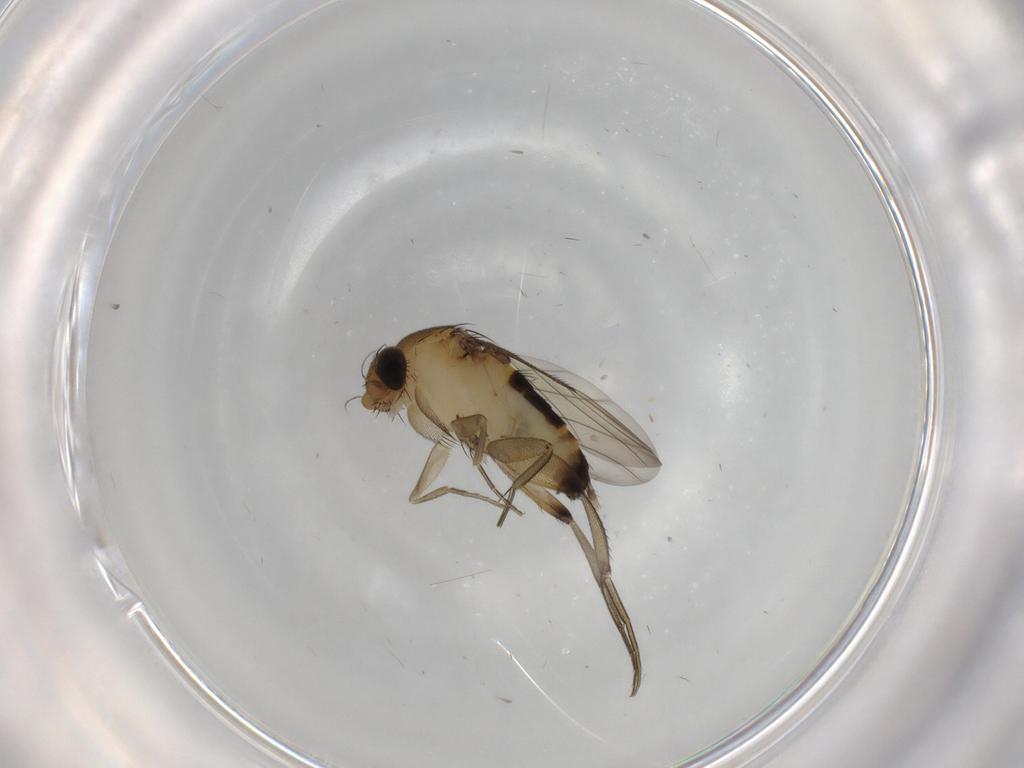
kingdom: Animalia
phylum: Arthropoda
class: Insecta
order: Diptera
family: Phoridae
